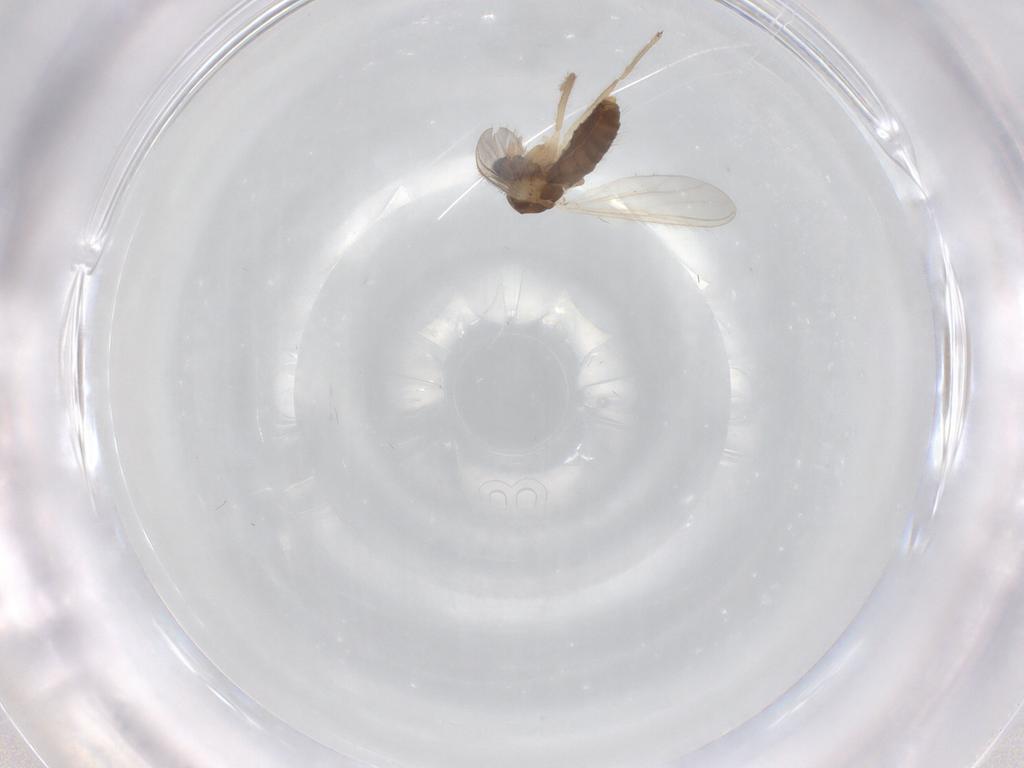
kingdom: Animalia
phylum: Arthropoda
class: Insecta
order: Diptera
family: Chironomidae
